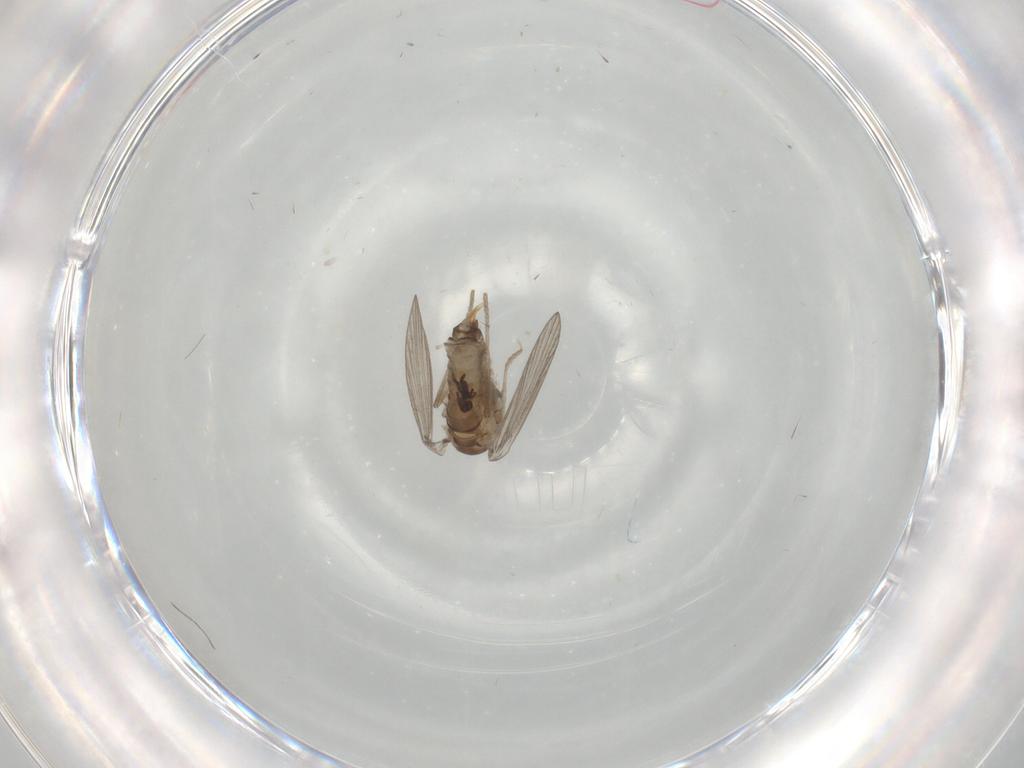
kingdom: Animalia
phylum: Arthropoda
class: Insecta
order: Diptera
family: Psychodidae
